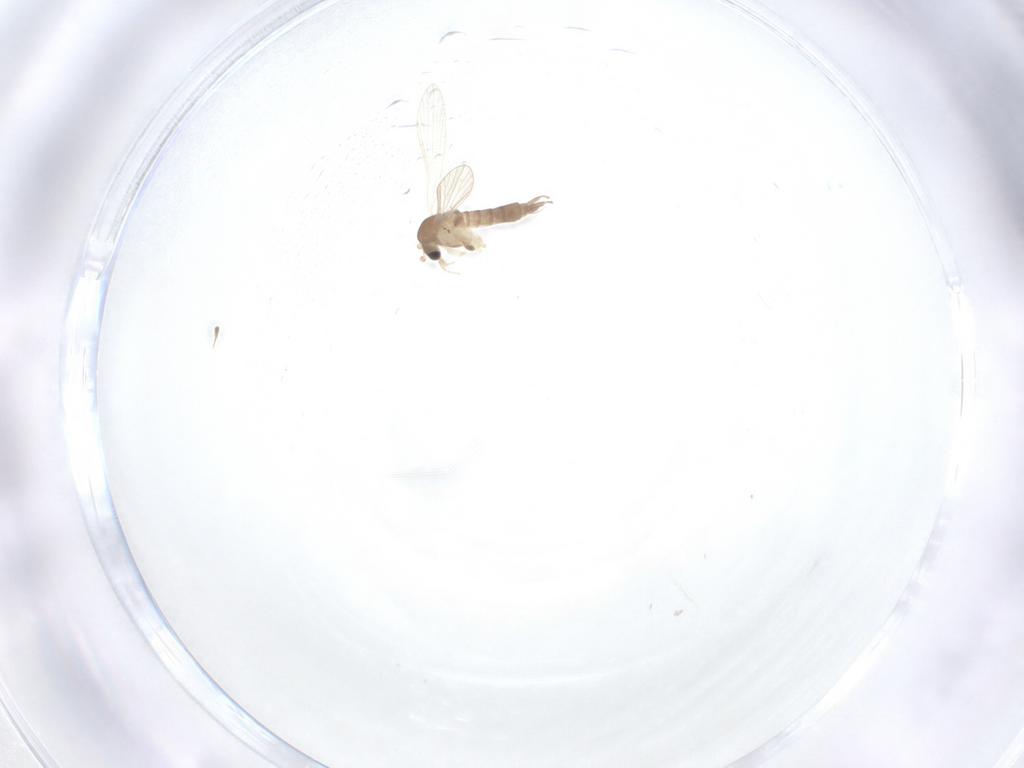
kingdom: Animalia
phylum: Arthropoda
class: Insecta
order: Diptera
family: Psychodidae
